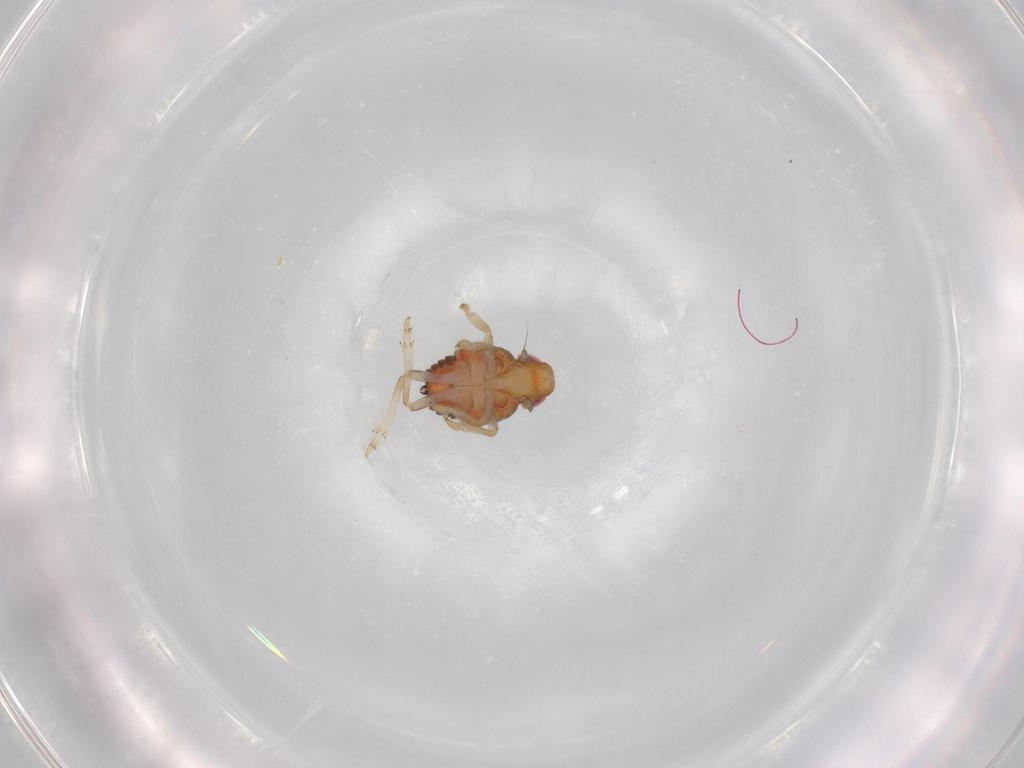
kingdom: Animalia
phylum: Arthropoda
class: Insecta
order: Hemiptera
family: Issidae
